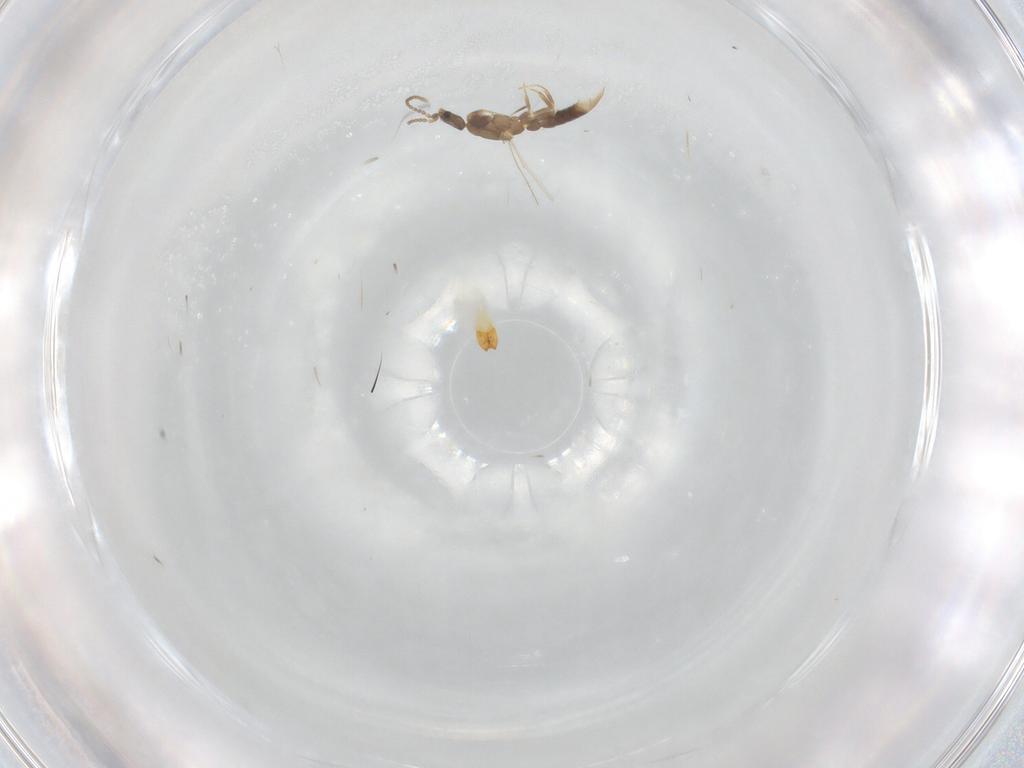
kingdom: Animalia
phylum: Arthropoda
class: Insecta
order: Hymenoptera
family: Formicidae
